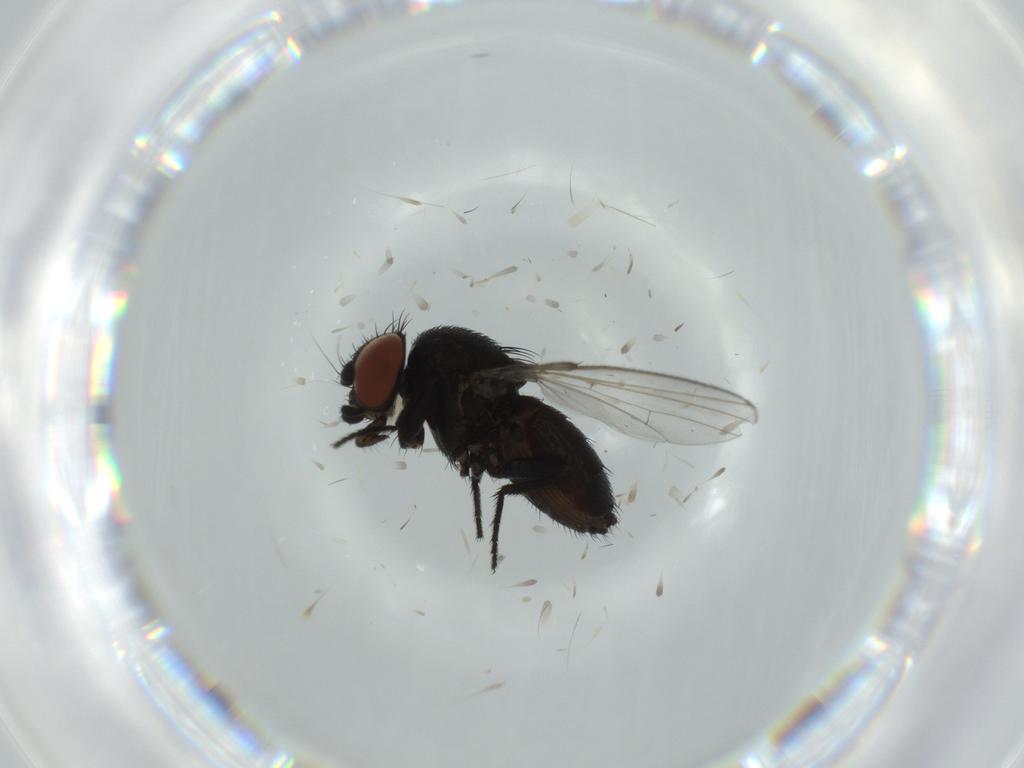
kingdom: Animalia
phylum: Arthropoda
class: Insecta
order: Diptera
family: Milichiidae
